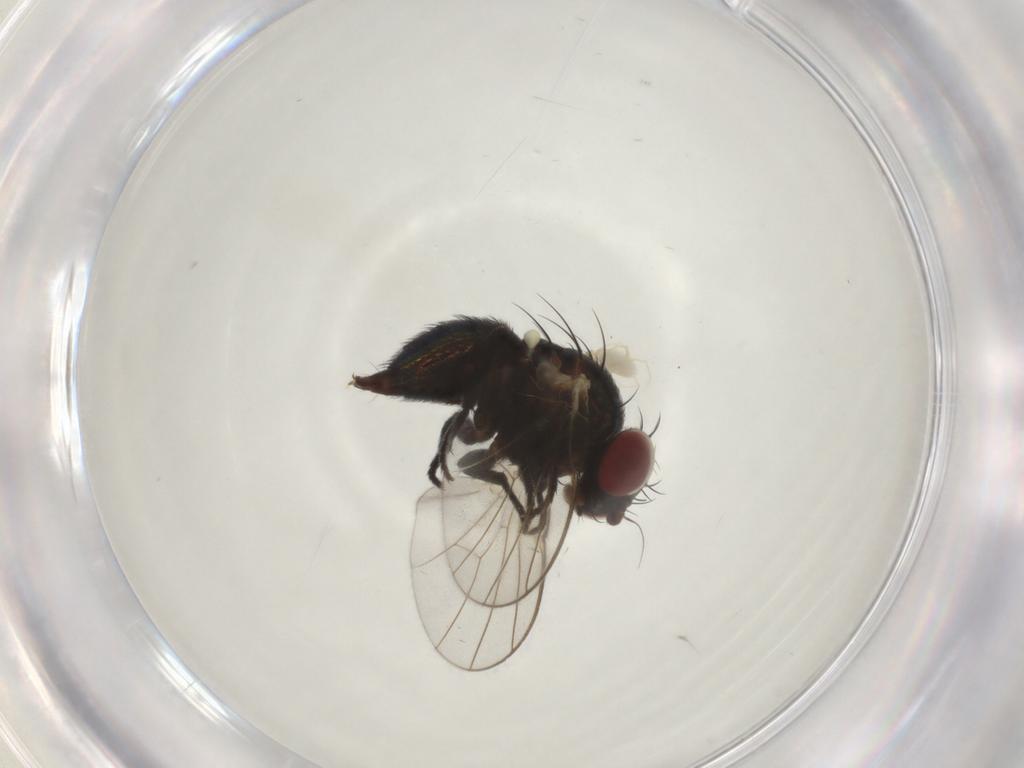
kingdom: Animalia
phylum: Arthropoda
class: Insecta
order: Diptera
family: Agromyzidae
